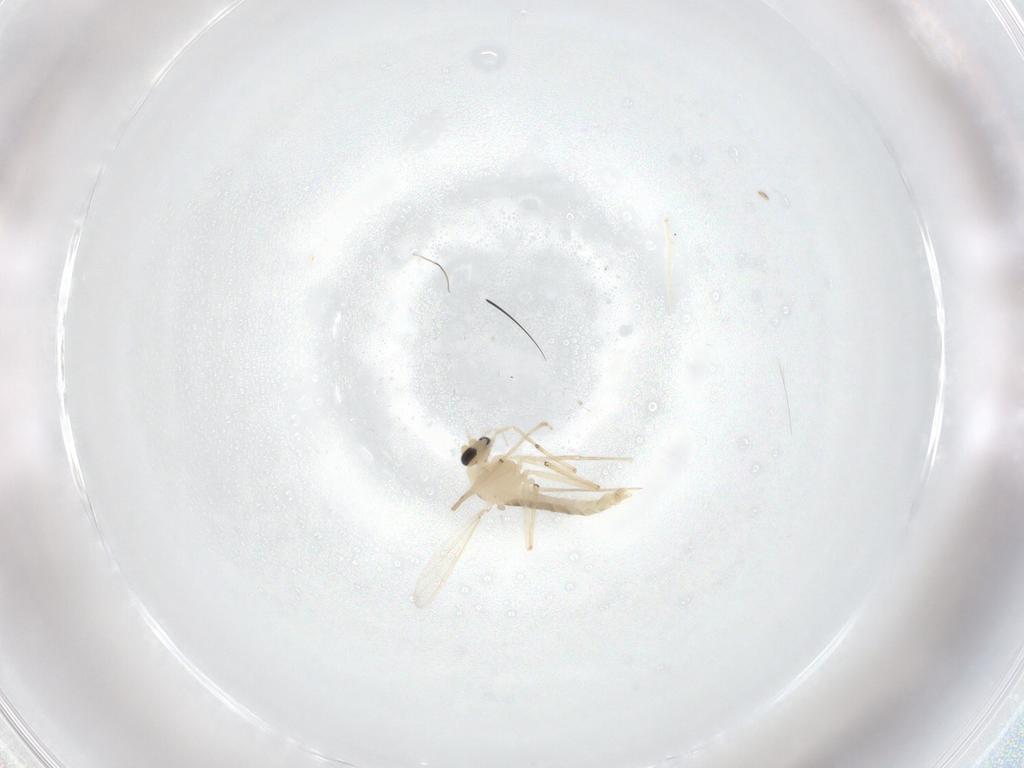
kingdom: Animalia
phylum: Arthropoda
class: Insecta
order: Diptera
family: Chironomidae
